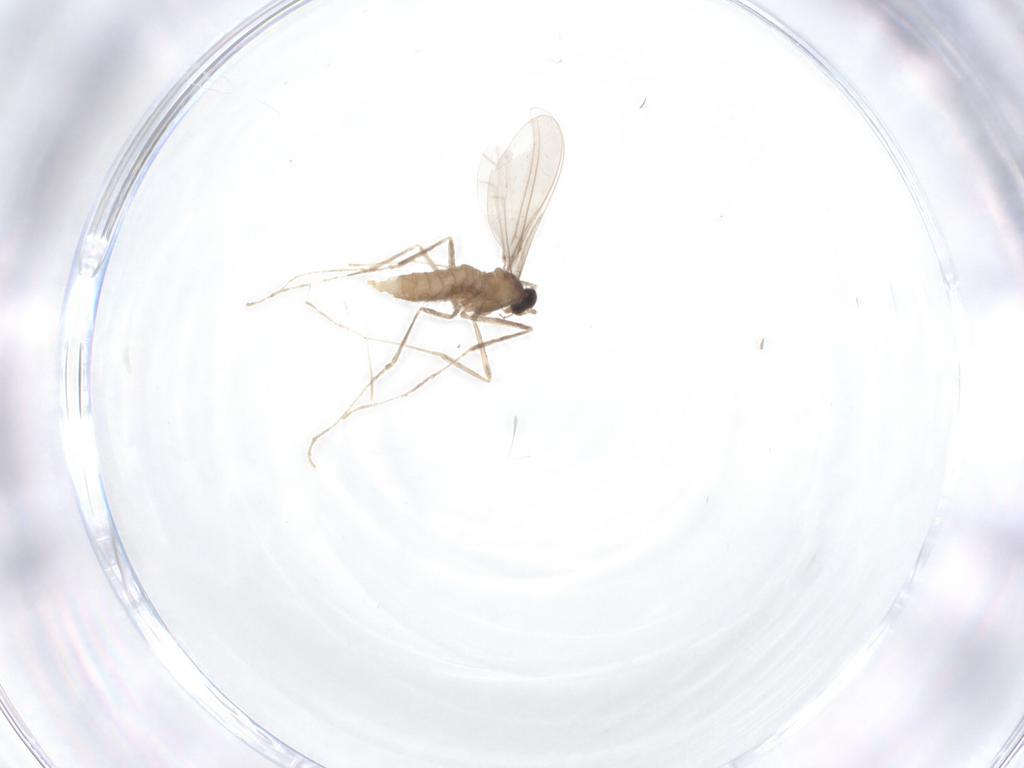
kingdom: Animalia
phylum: Arthropoda
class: Insecta
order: Diptera
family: Cecidomyiidae
